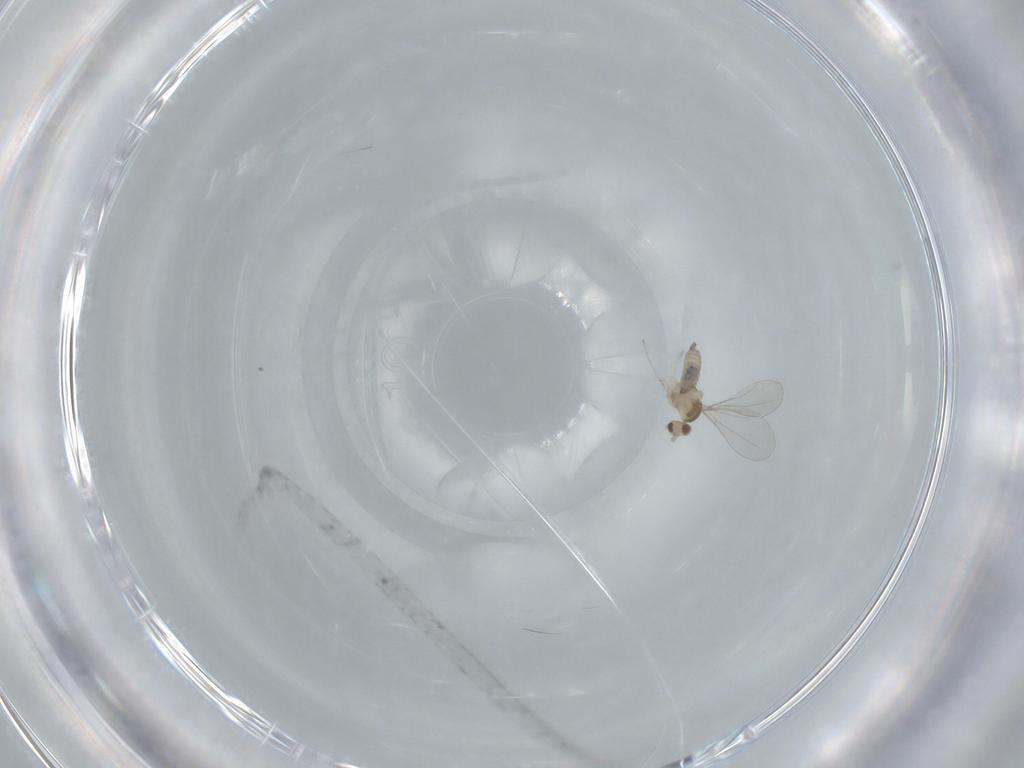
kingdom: Animalia
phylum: Arthropoda
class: Insecta
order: Diptera
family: Cecidomyiidae
